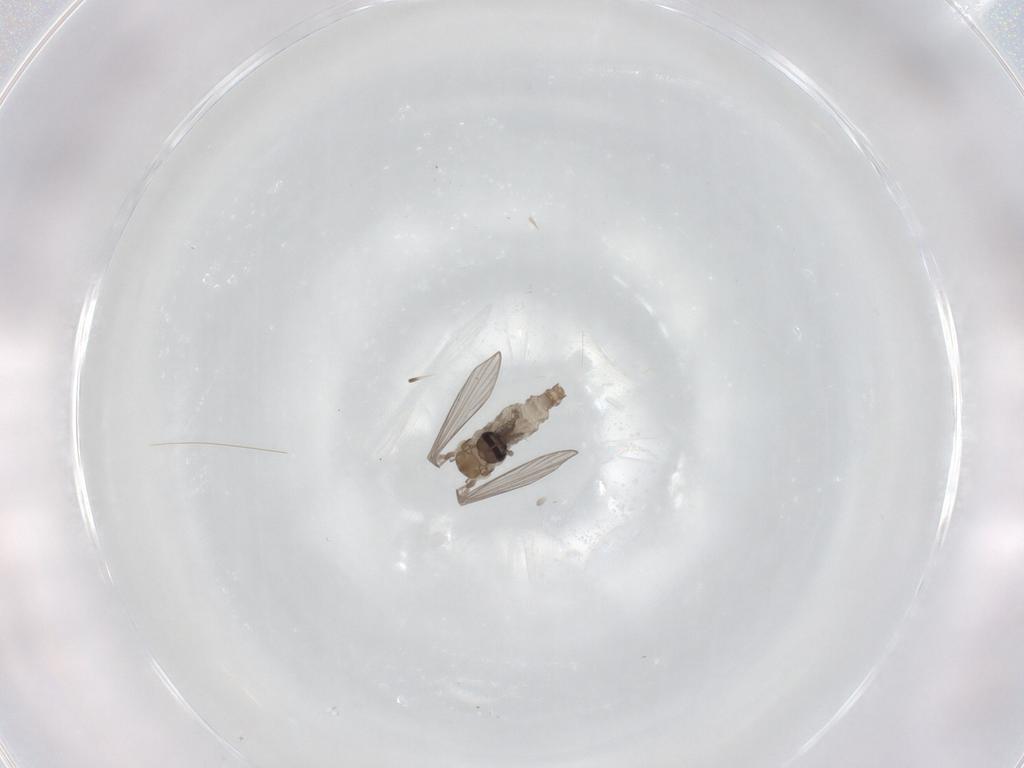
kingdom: Animalia
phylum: Arthropoda
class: Insecta
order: Diptera
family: Psychodidae
